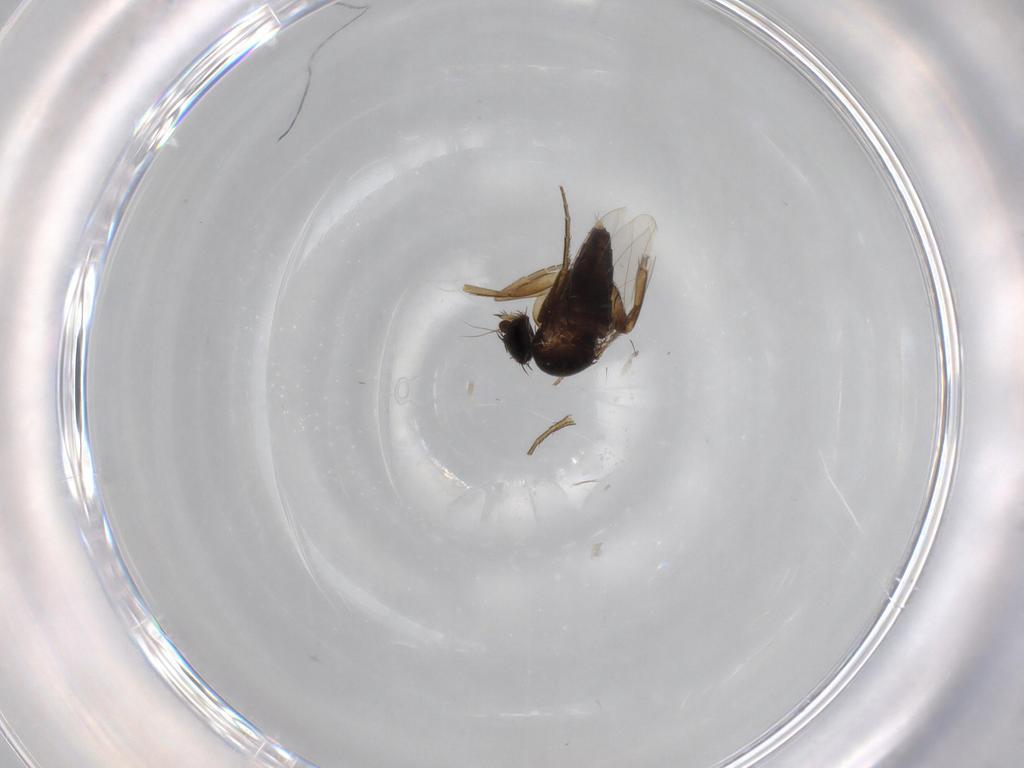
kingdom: Animalia
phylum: Arthropoda
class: Insecta
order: Diptera
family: Phoridae
